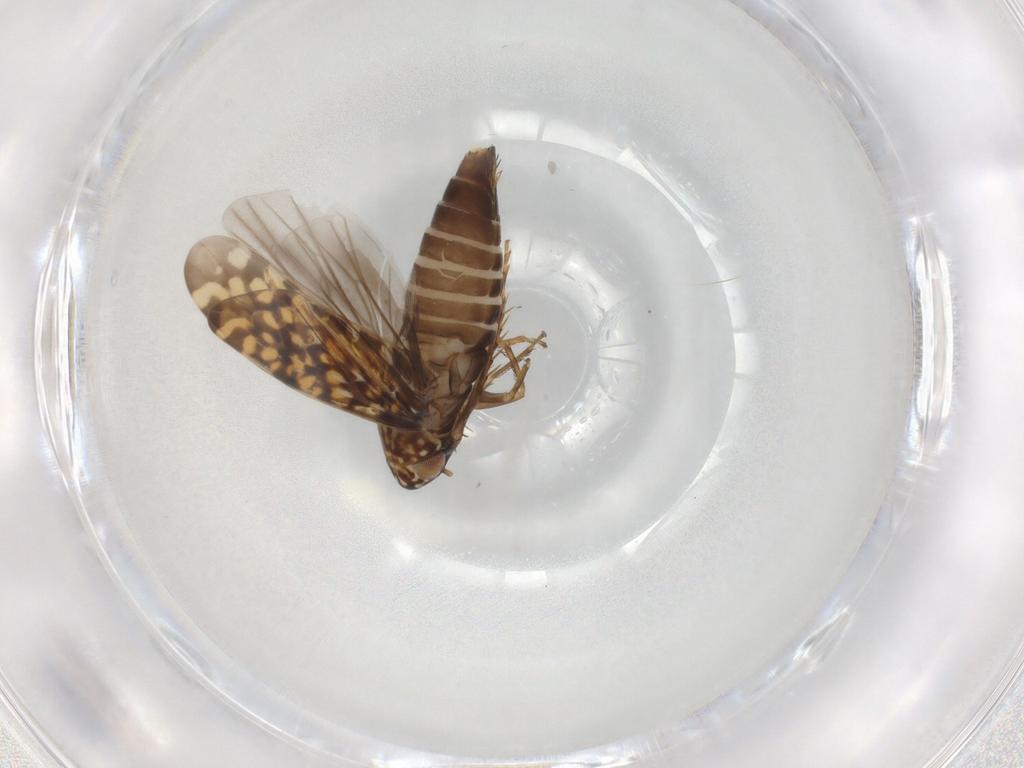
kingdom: Animalia
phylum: Arthropoda
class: Insecta
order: Hemiptera
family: Cicadellidae
